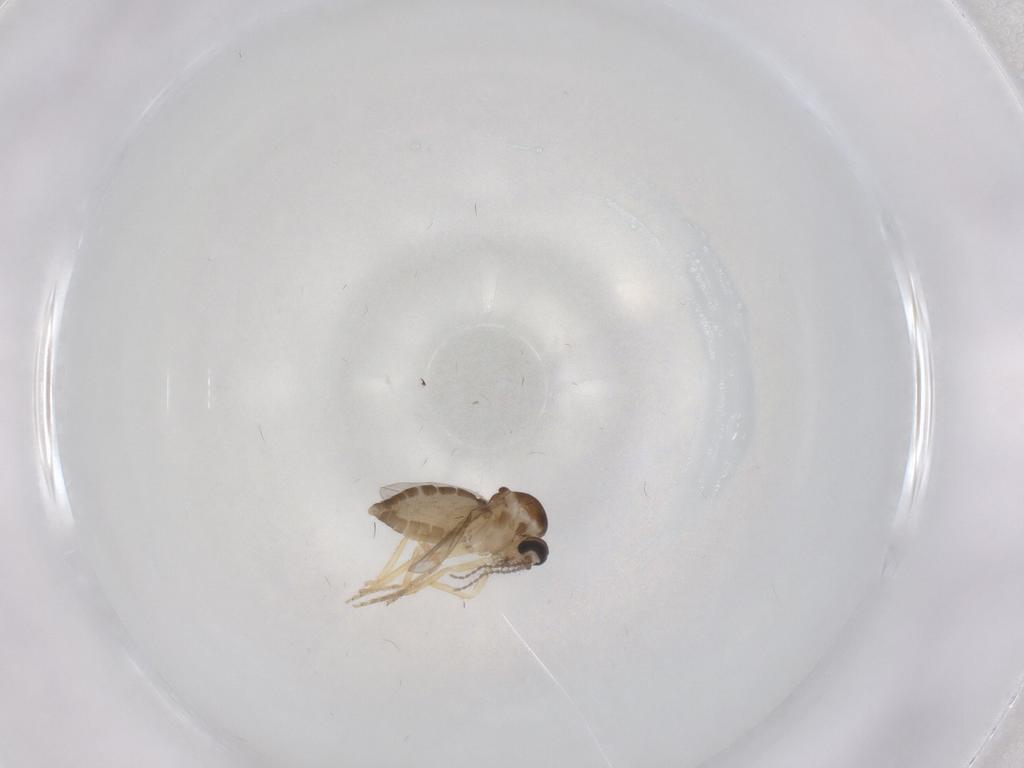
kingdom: Animalia
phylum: Arthropoda
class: Insecta
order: Diptera
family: Ceratopogonidae
